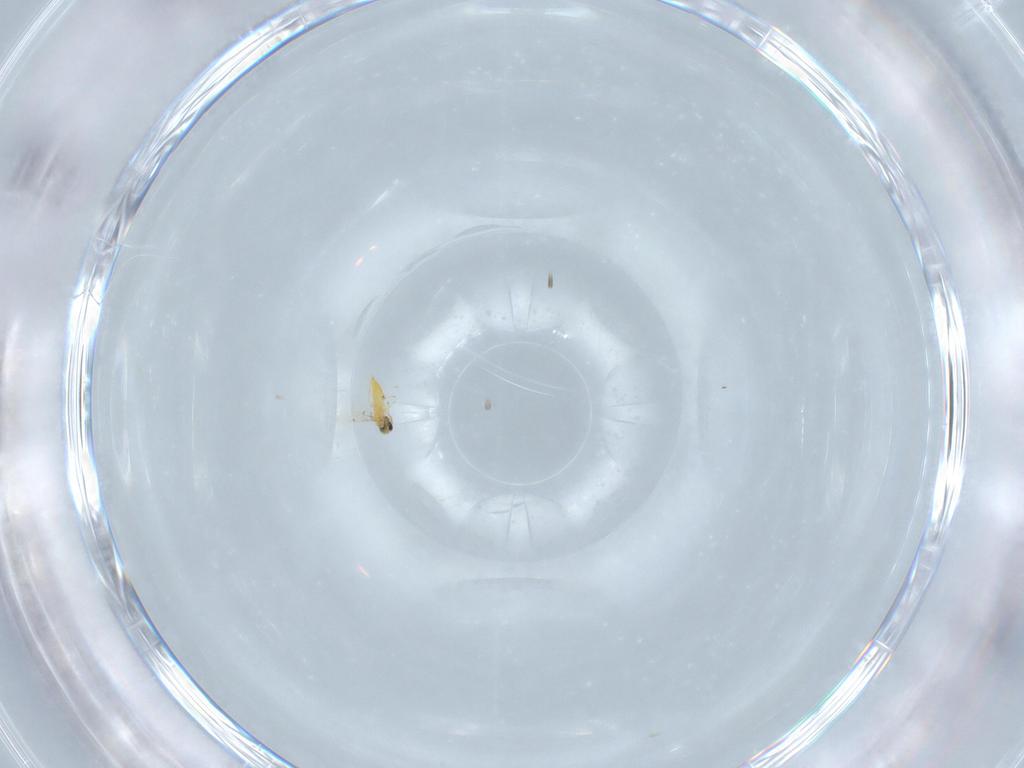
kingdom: Animalia
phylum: Arthropoda
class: Insecta
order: Hymenoptera
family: Trichogrammatidae
